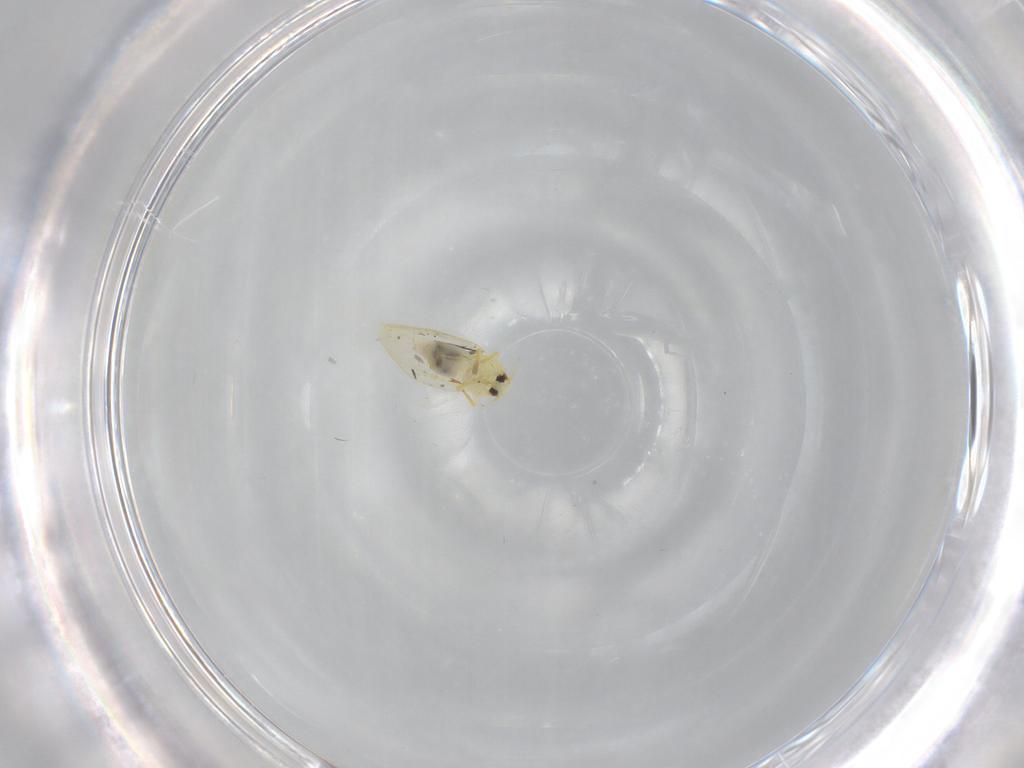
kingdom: Animalia
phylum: Arthropoda
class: Insecta
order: Hemiptera
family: Aleyrodidae
